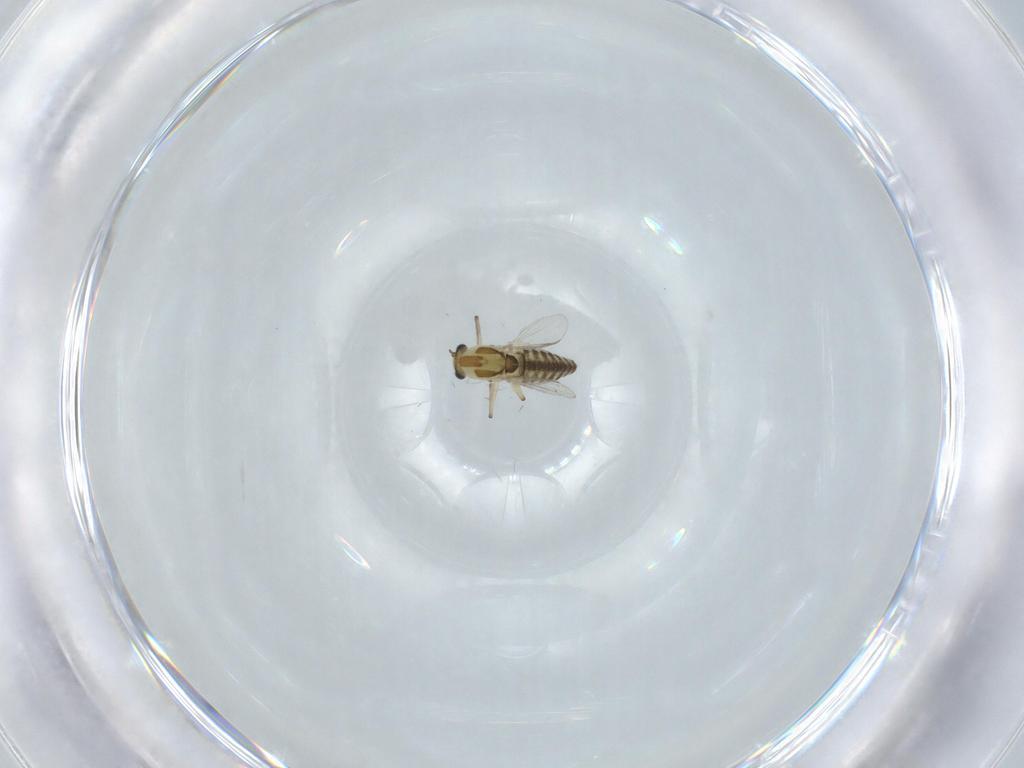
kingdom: Animalia
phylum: Arthropoda
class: Insecta
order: Diptera
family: Chironomidae
